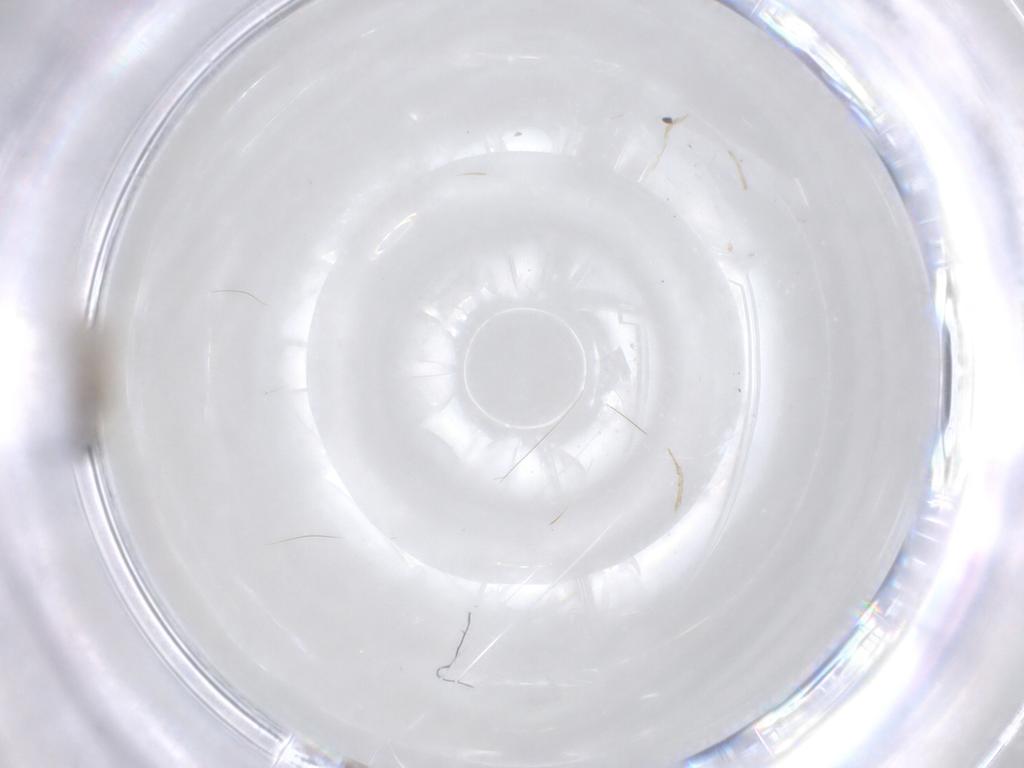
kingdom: Animalia
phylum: Arthropoda
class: Insecta
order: Diptera
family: Cecidomyiidae
